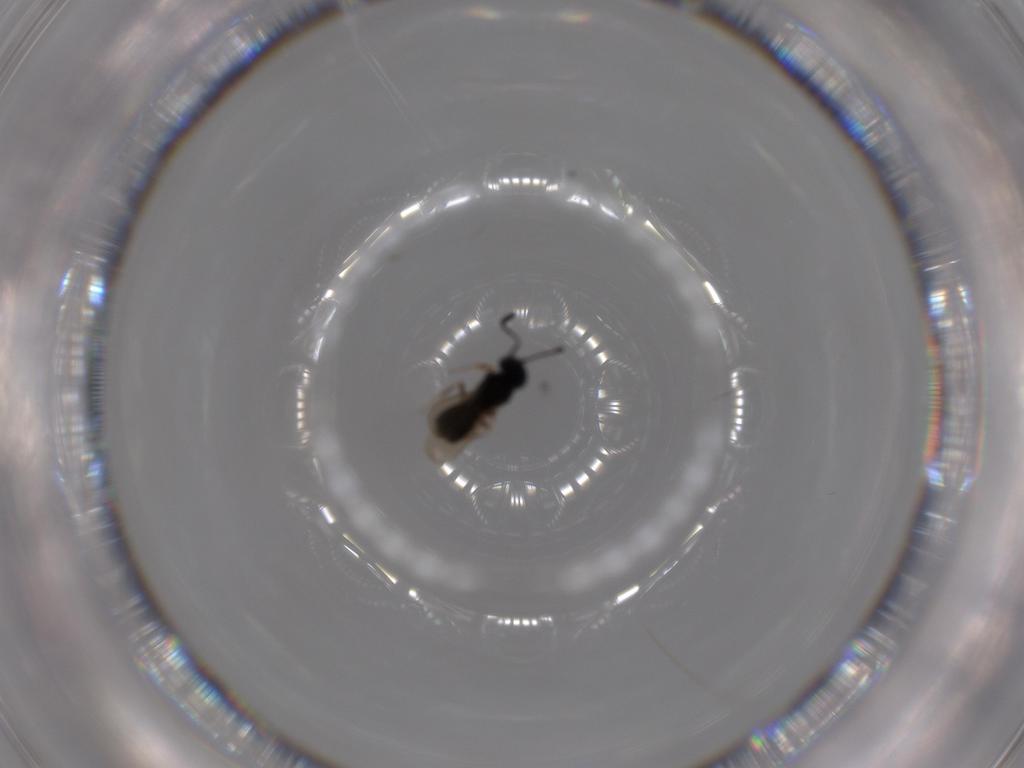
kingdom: Animalia
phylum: Arthropoda
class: Insecta
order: Hymenoptera
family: Scelionidae
